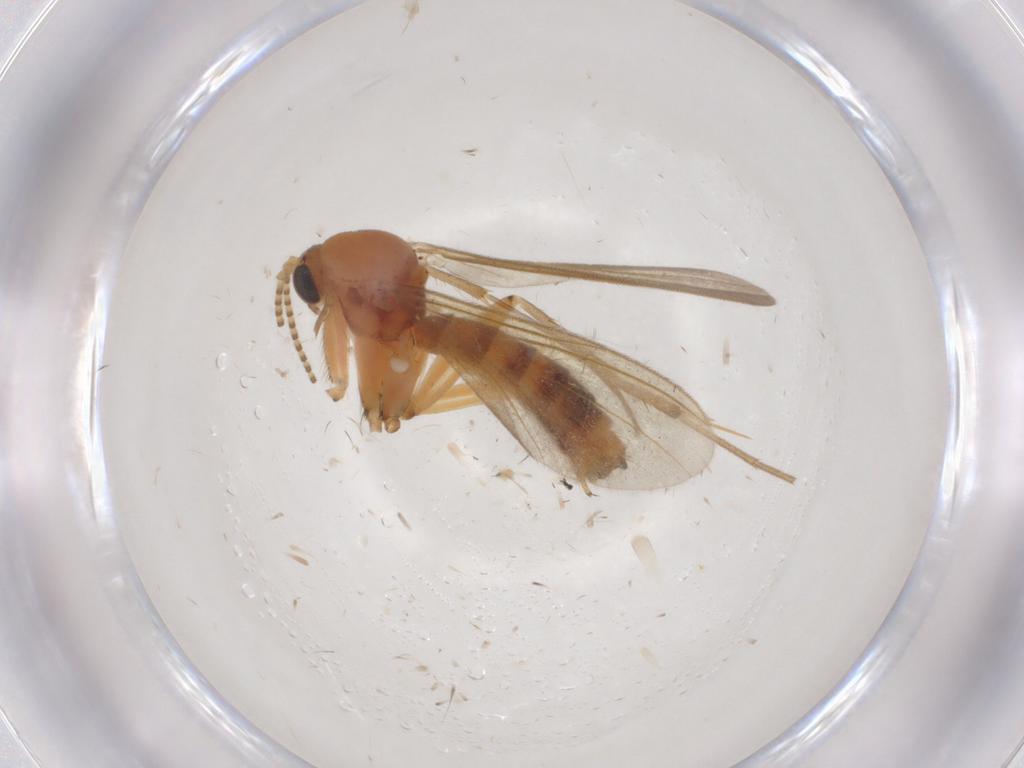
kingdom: Animalia
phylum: Arthropoda
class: Insecta
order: Diptera
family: Mycetophilidae
